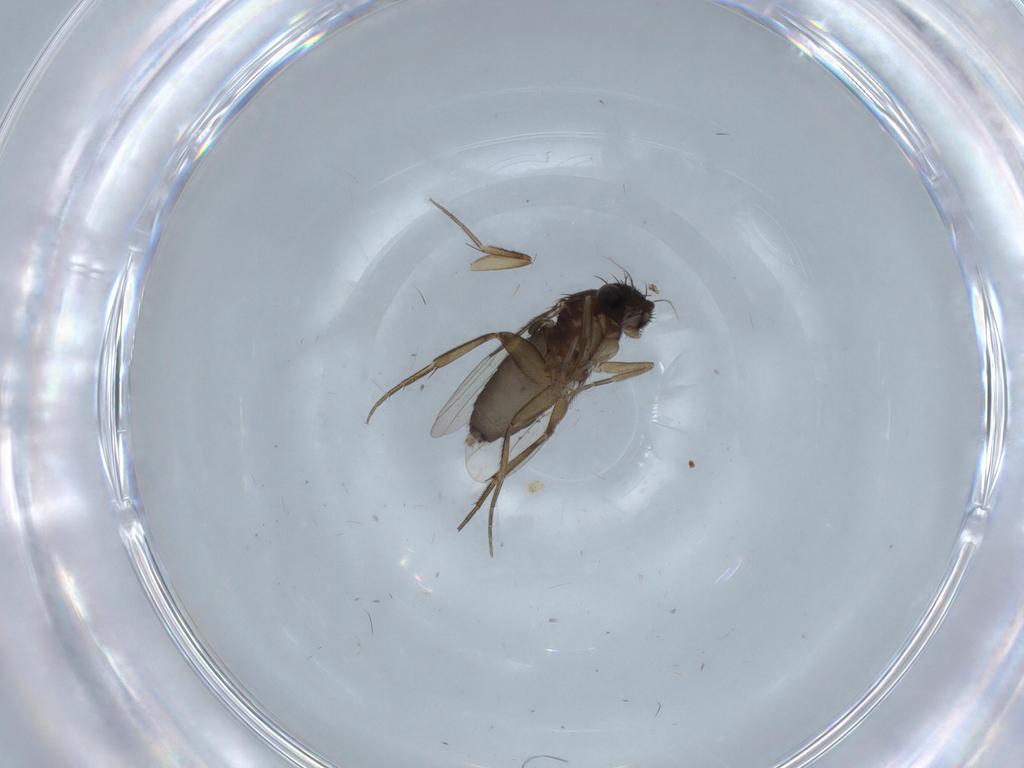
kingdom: Animalia
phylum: Arthropoda
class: Insecta
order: Diptera
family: Phoridae
